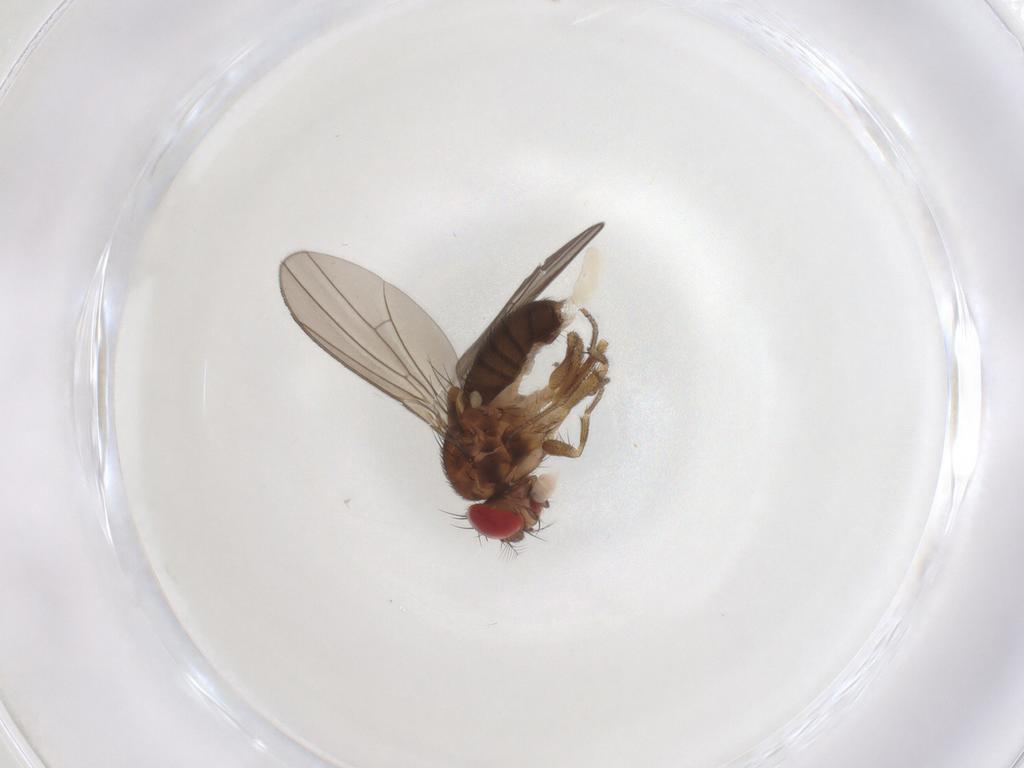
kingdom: Animalia
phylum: Arthropoda
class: Insecta
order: Diptera
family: Drosophilidae
